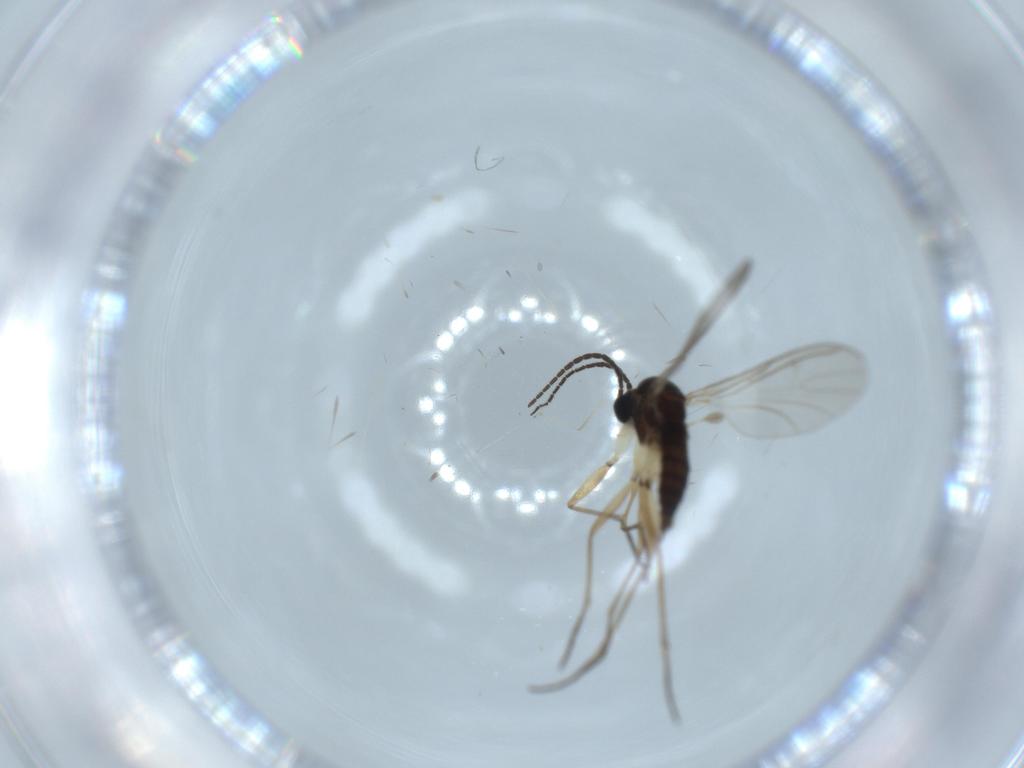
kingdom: Animalia
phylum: Arthropoda
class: Insecta
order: Diptera
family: Sciaridae
